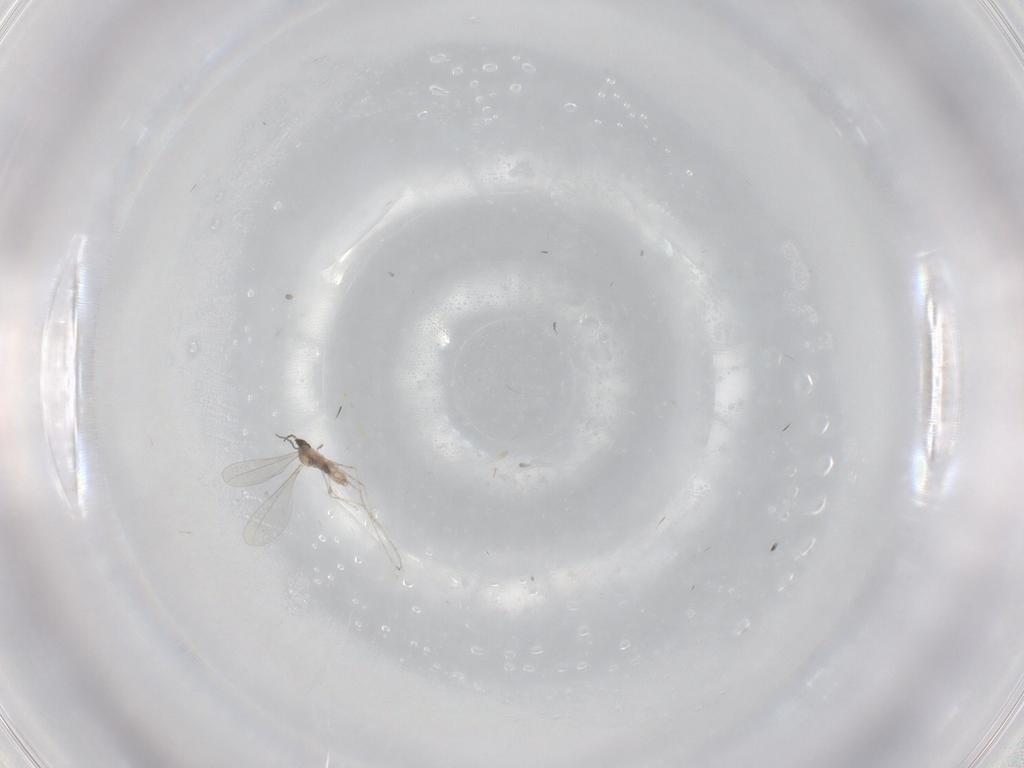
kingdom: Animalia
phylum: Arthropoda
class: Insecta
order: Diptera
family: Cecidomyiidae
